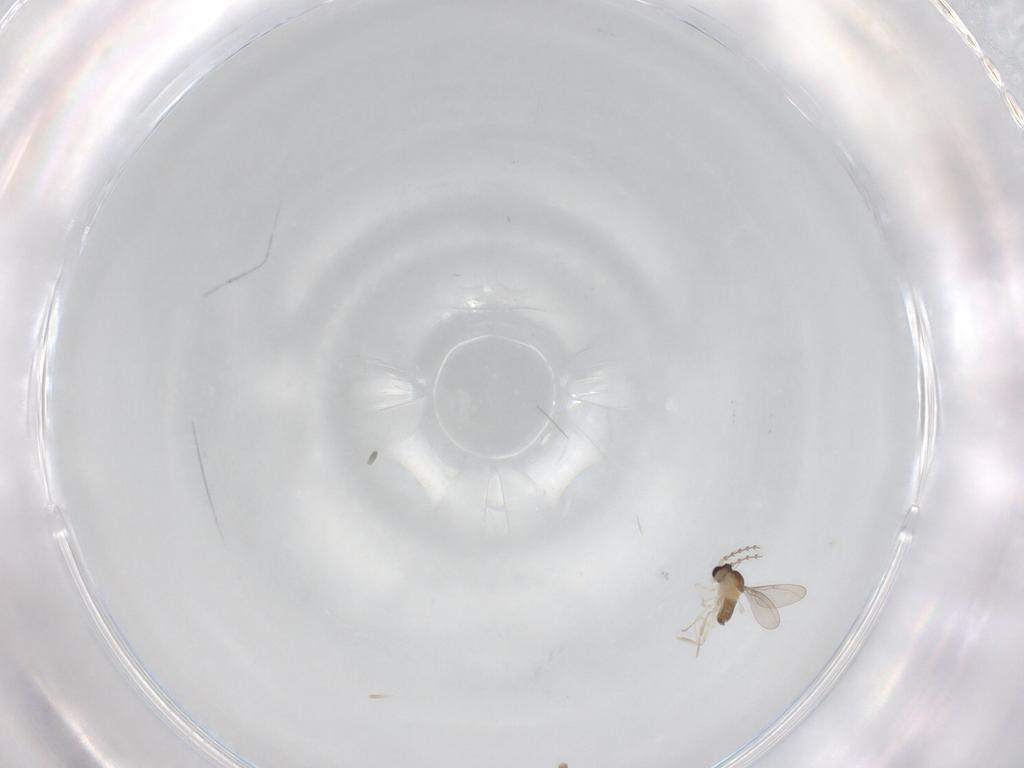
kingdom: Animalia
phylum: Arthropoda
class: Insecta
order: Diptera
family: Cecidomyiidae
